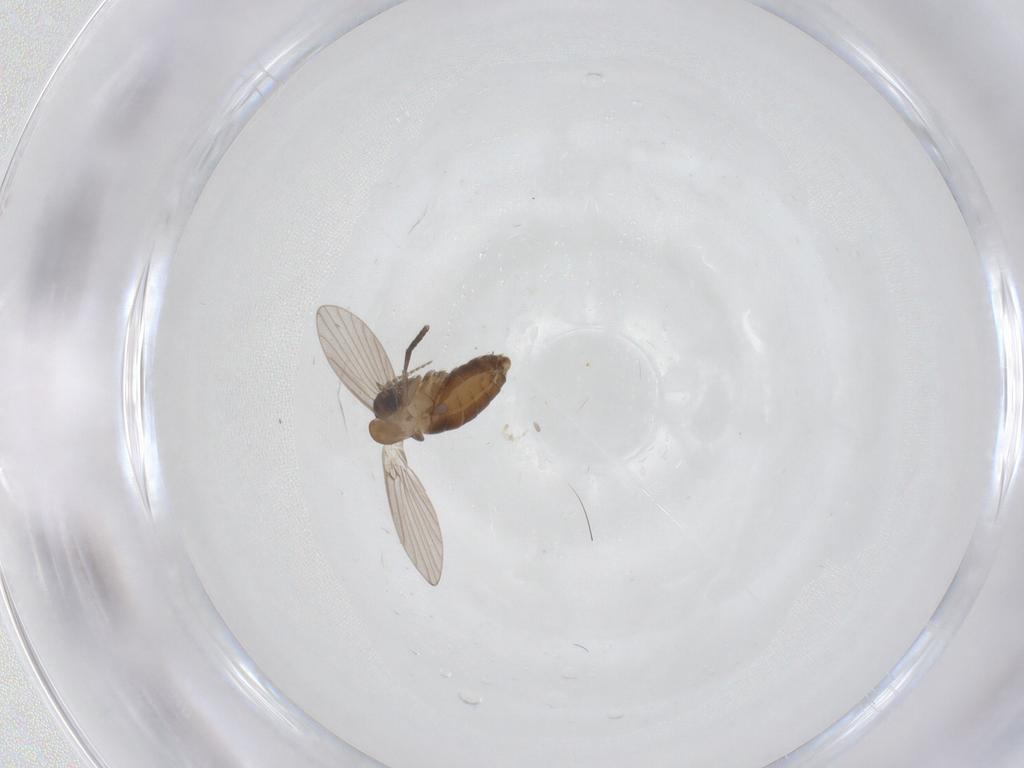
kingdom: Animalia
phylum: Arthropoda
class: Insecta
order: Diptera
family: Psychodidae
